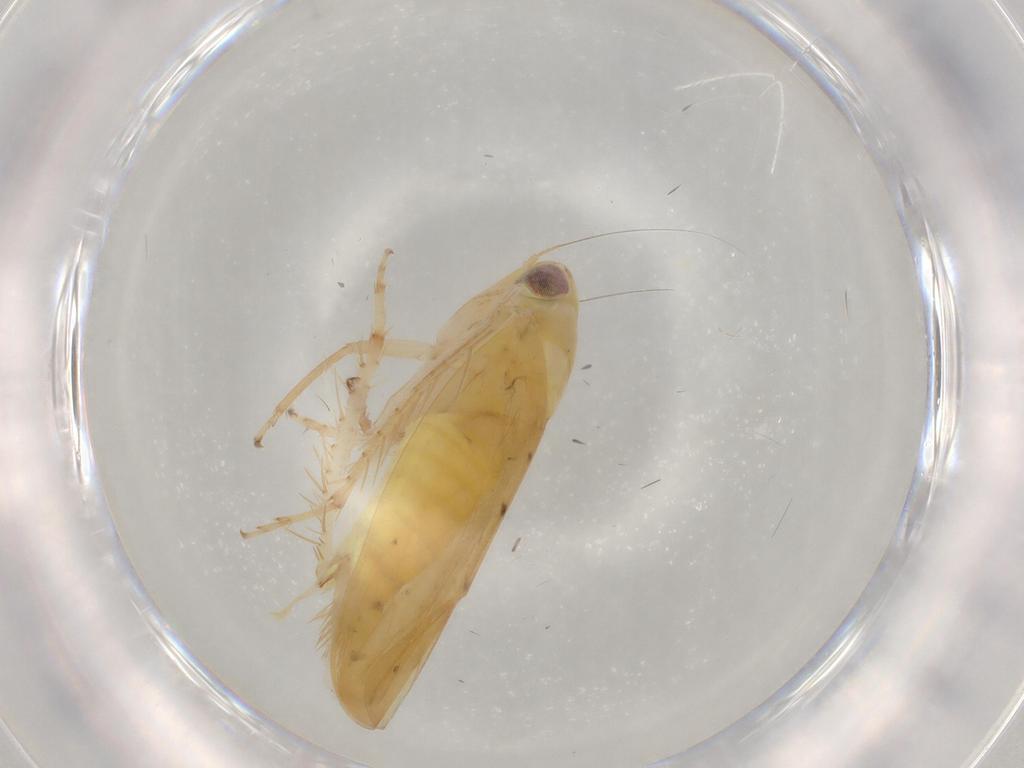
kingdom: Animalia
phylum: Arthropoda
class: Insecta
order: Hemiptera
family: Cicadellidae
